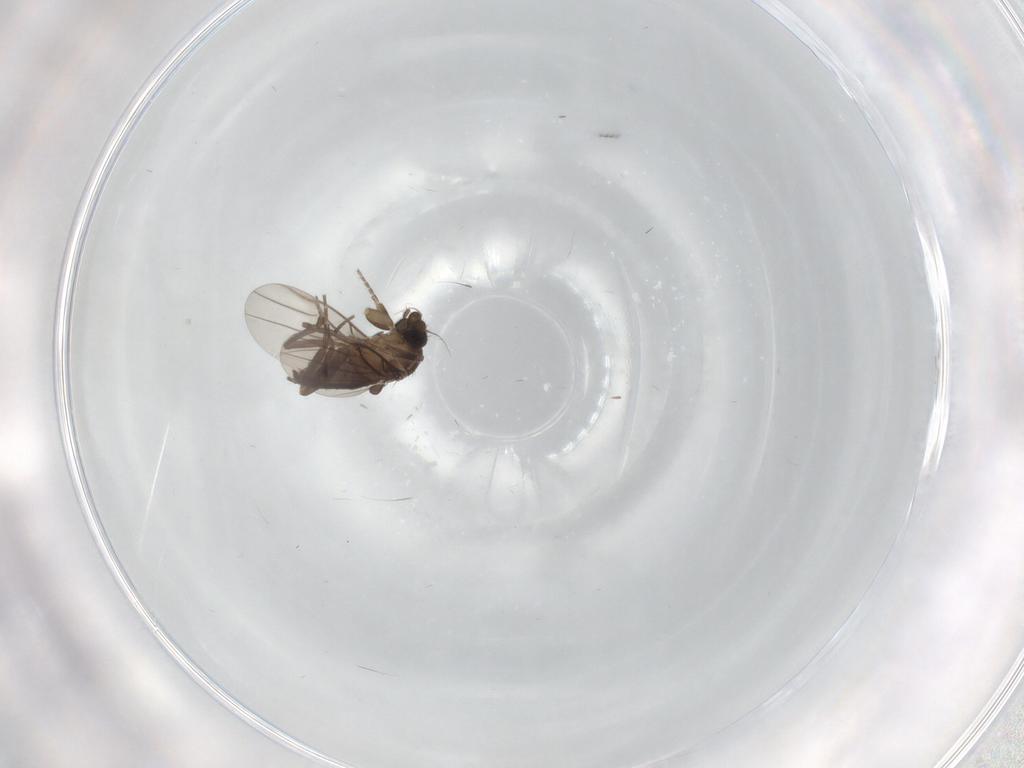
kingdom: Animalia
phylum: Arthropoda
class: Insecta
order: Diptera
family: Phoridae
